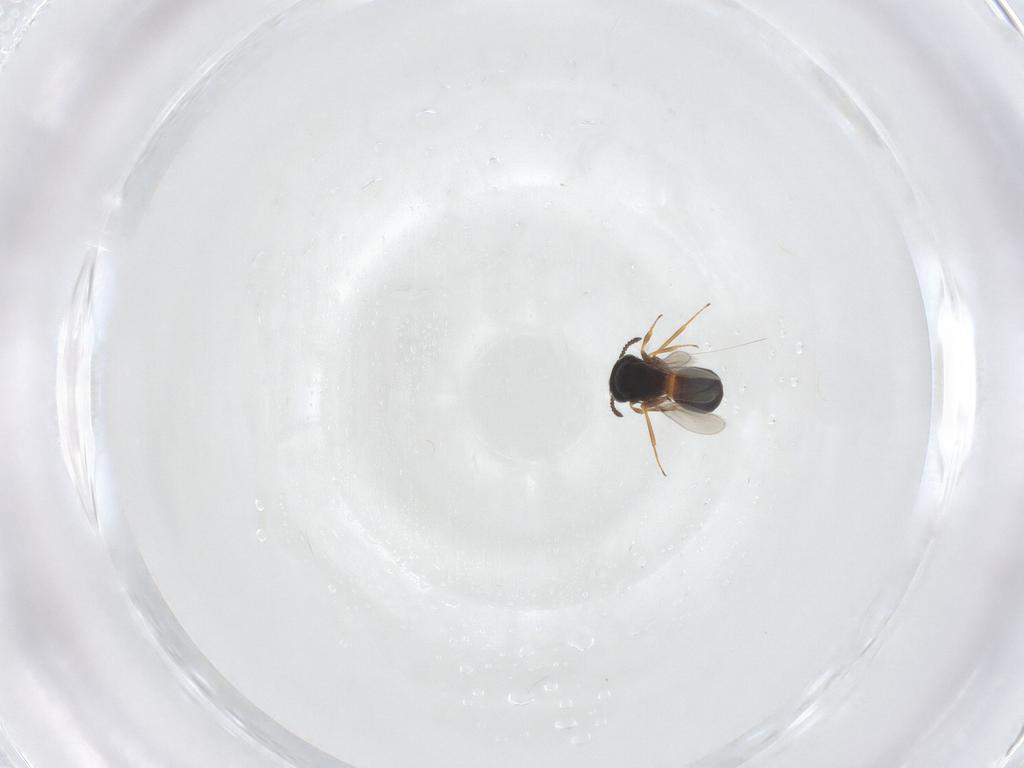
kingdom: Animalia
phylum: Arthropoda
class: Insecta
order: Hymenoptera
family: Scelionidae
